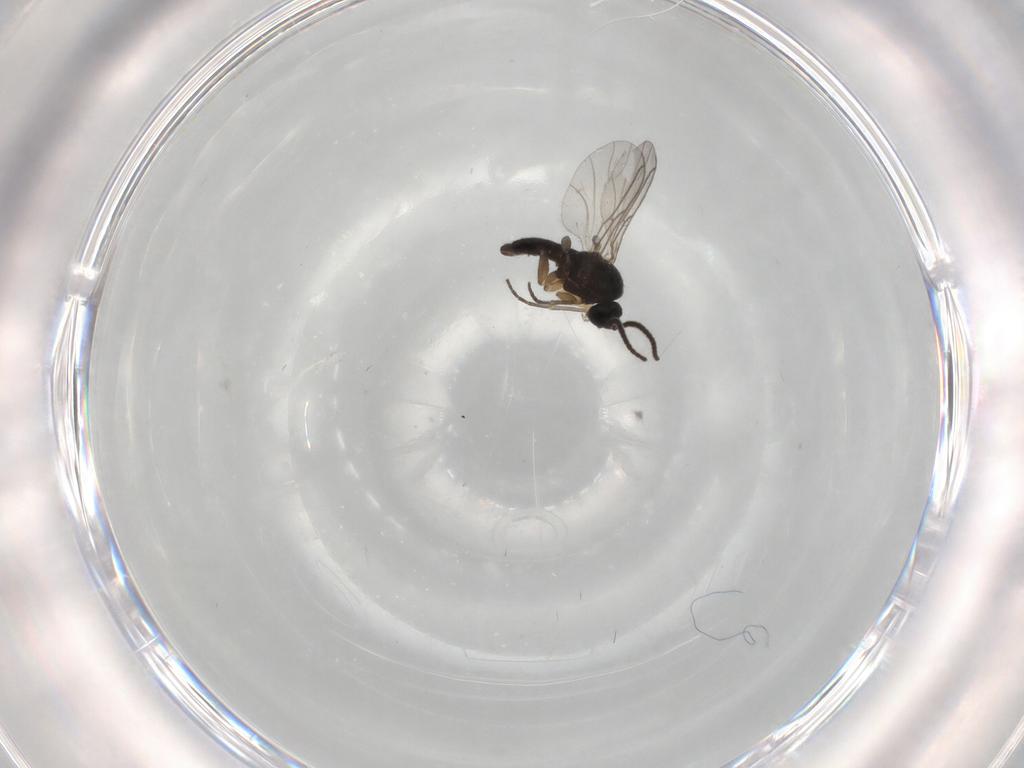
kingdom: Animalia
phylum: Arthropoda
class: Insecta
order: Diptera
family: Sciaridae
